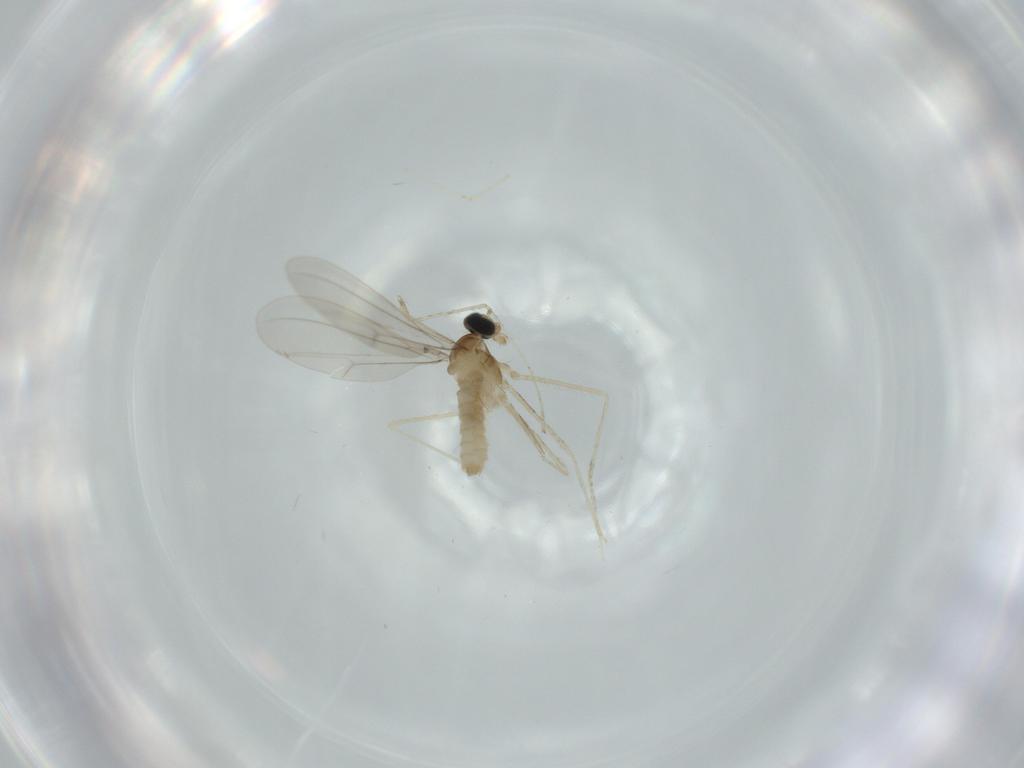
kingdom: Animalia
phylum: Arthropoda
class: Insecta
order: Diptera
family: Cecidomyiidae
